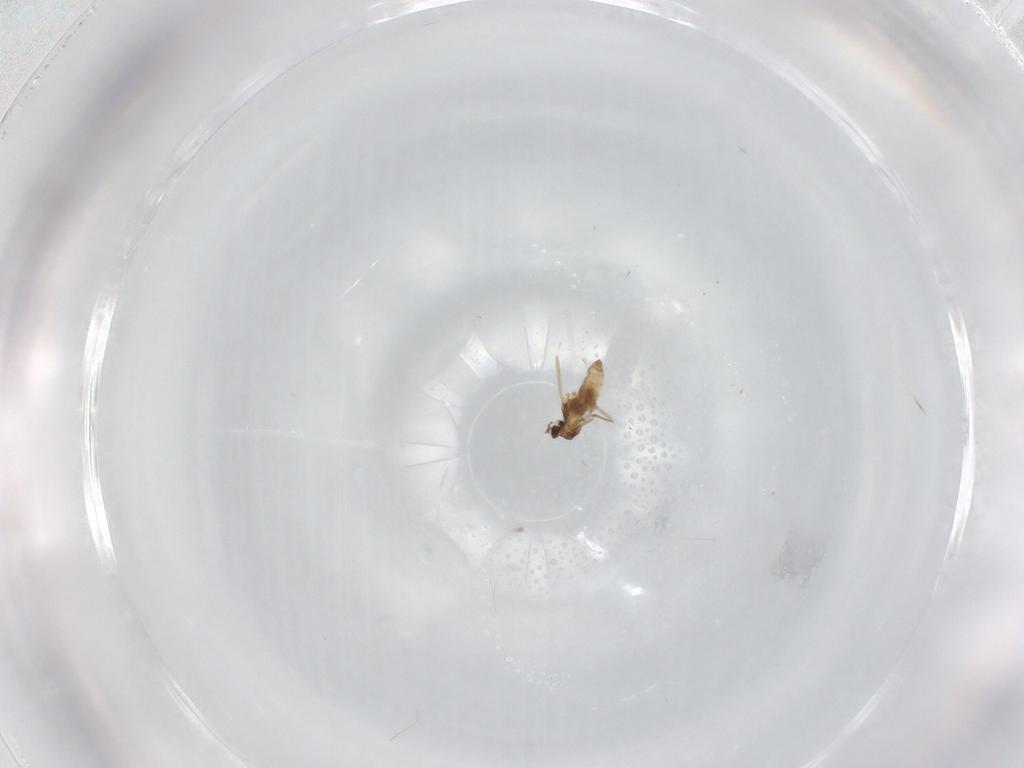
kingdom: Animalia
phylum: Arthropoda
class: Insecta
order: Diptera
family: Cecidomyiidae
